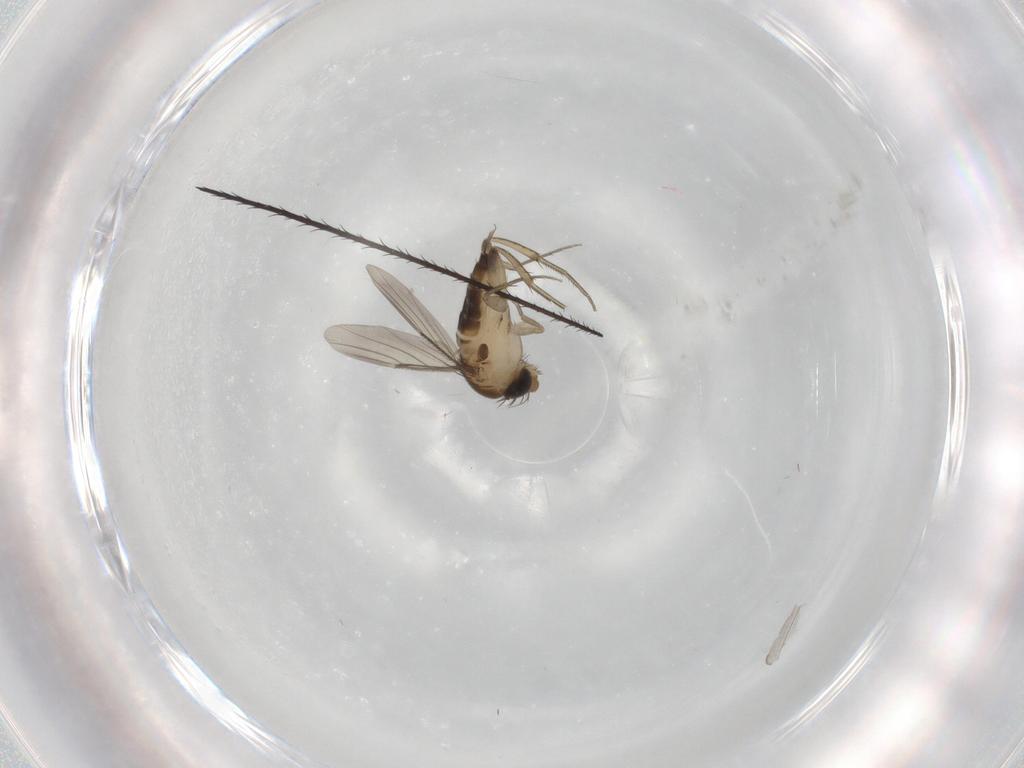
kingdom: Animalia
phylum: Arthropoda
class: Insecta
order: Diptera
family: Phoridae
